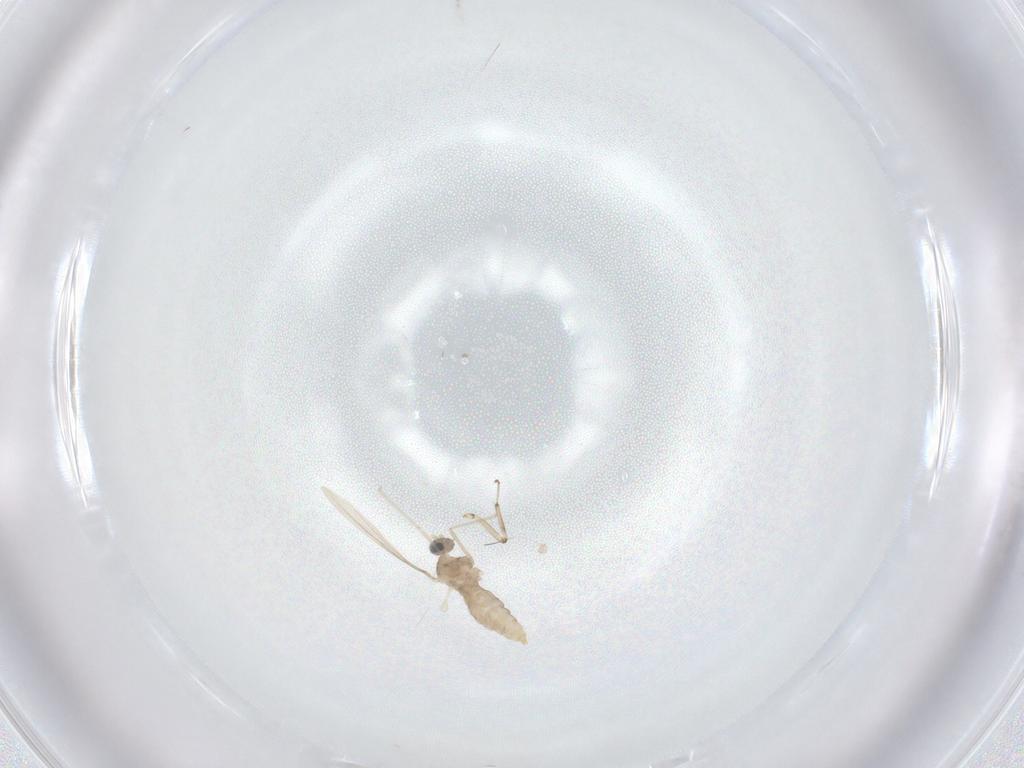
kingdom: Animalia
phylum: Arthropoda
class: Insecta
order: Diptera
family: Cecidomyiidae
